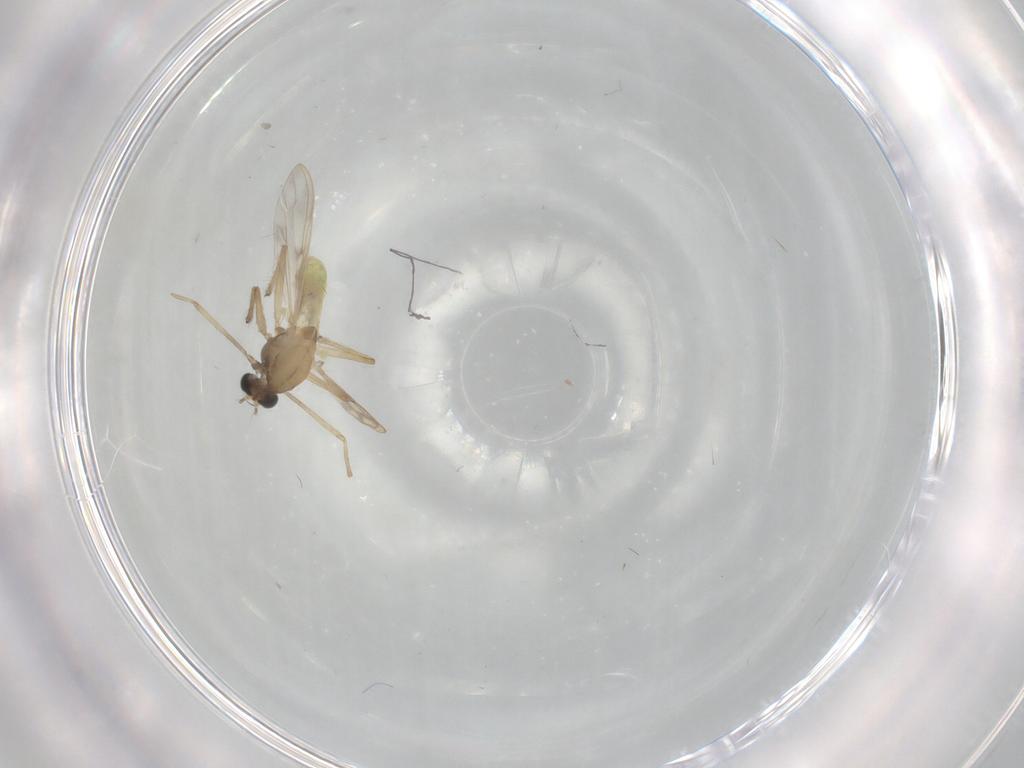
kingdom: Animalia
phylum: Arthropoda
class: Insecta
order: Diptera
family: Chironomidae
